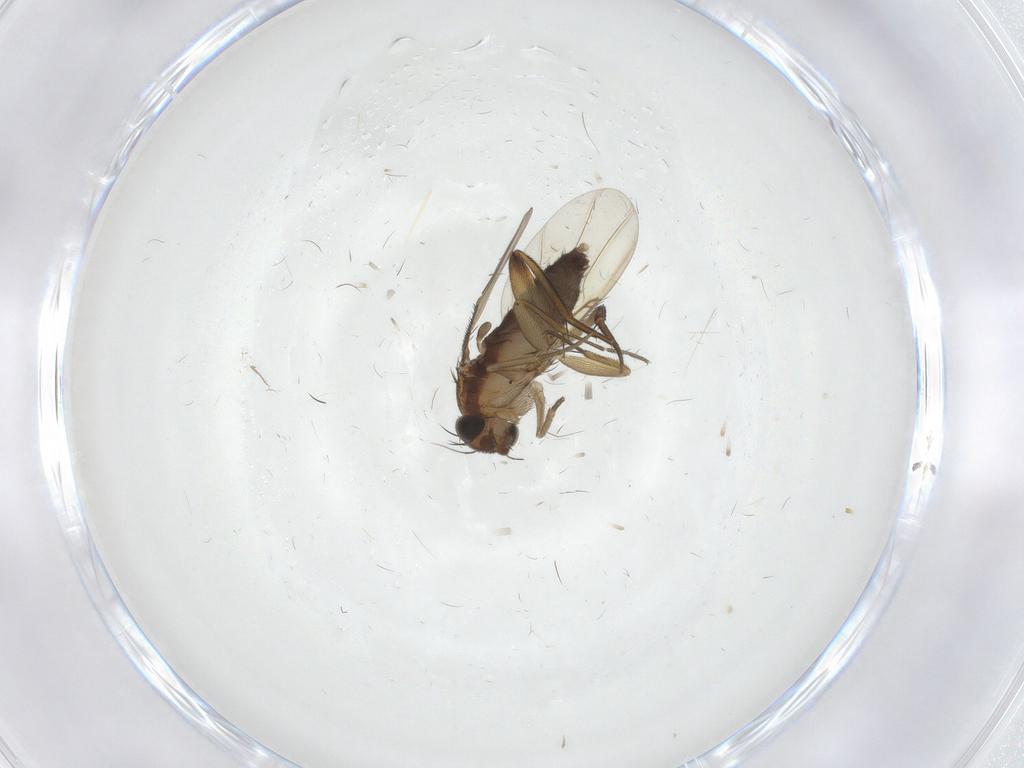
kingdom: Animalia
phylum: Arthropoda
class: Insecta
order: Diptera
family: Phoridae
